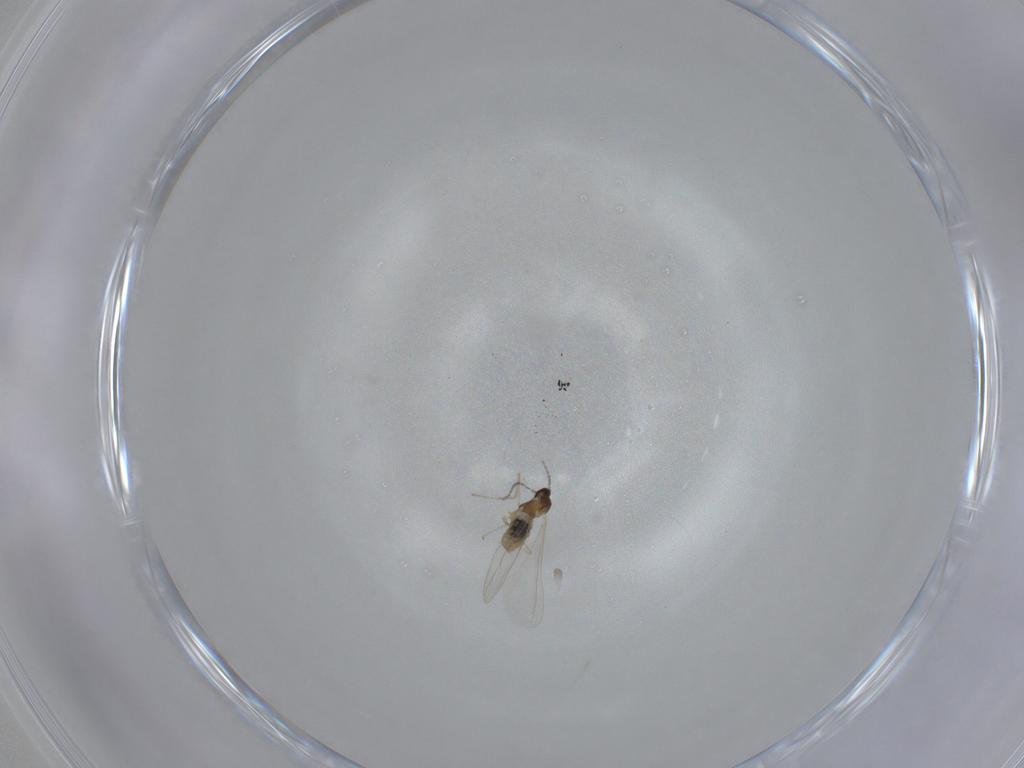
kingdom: Animalia
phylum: Arthropoda
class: Insecta
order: Diptera
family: Phoridae
